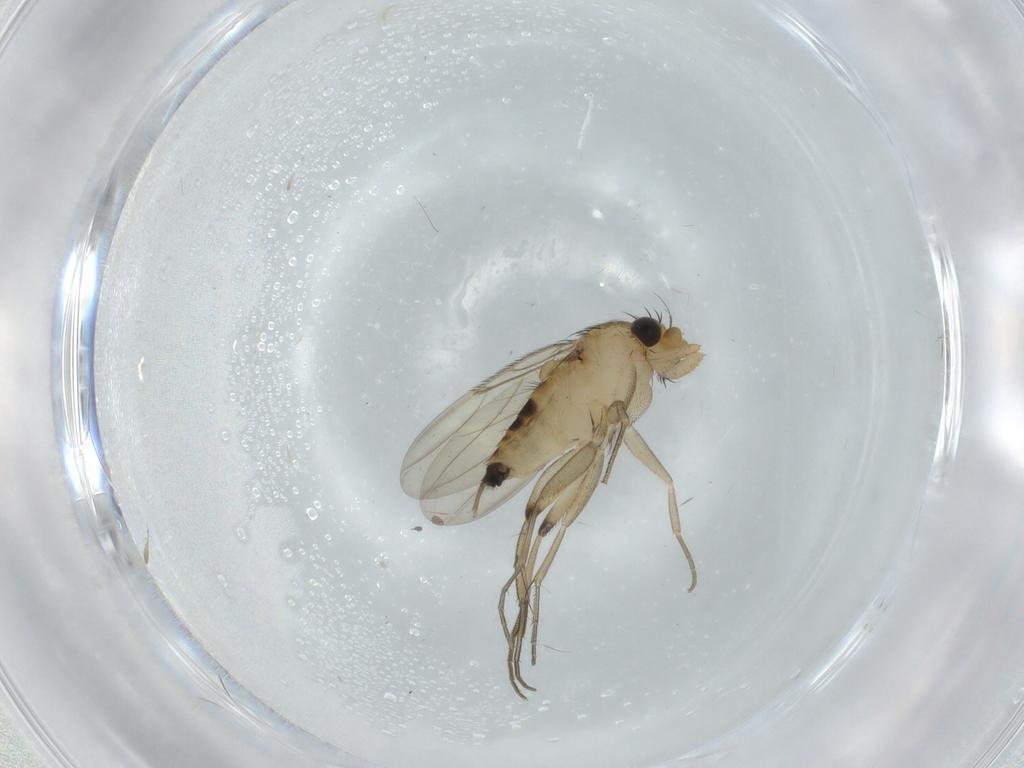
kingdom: Animalia
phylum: Arthropoda
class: Insecta
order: Diptera
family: Phoridae
